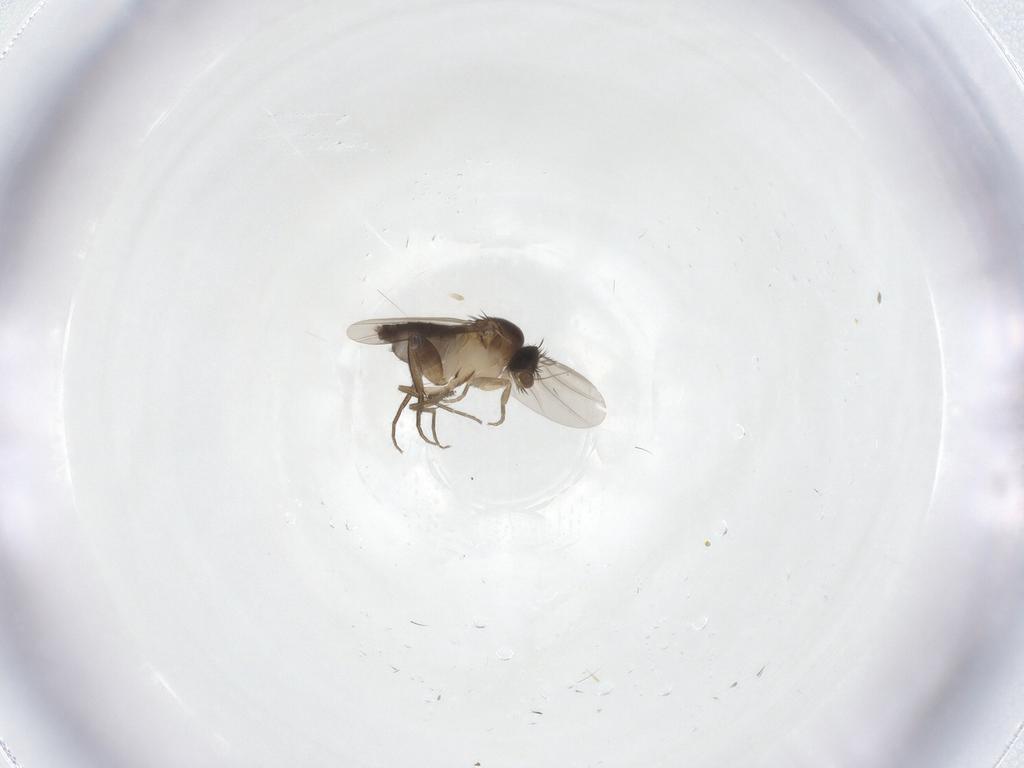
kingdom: Animalia
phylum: Arthropoda
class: Insecta
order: Diptera
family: Phoridae
